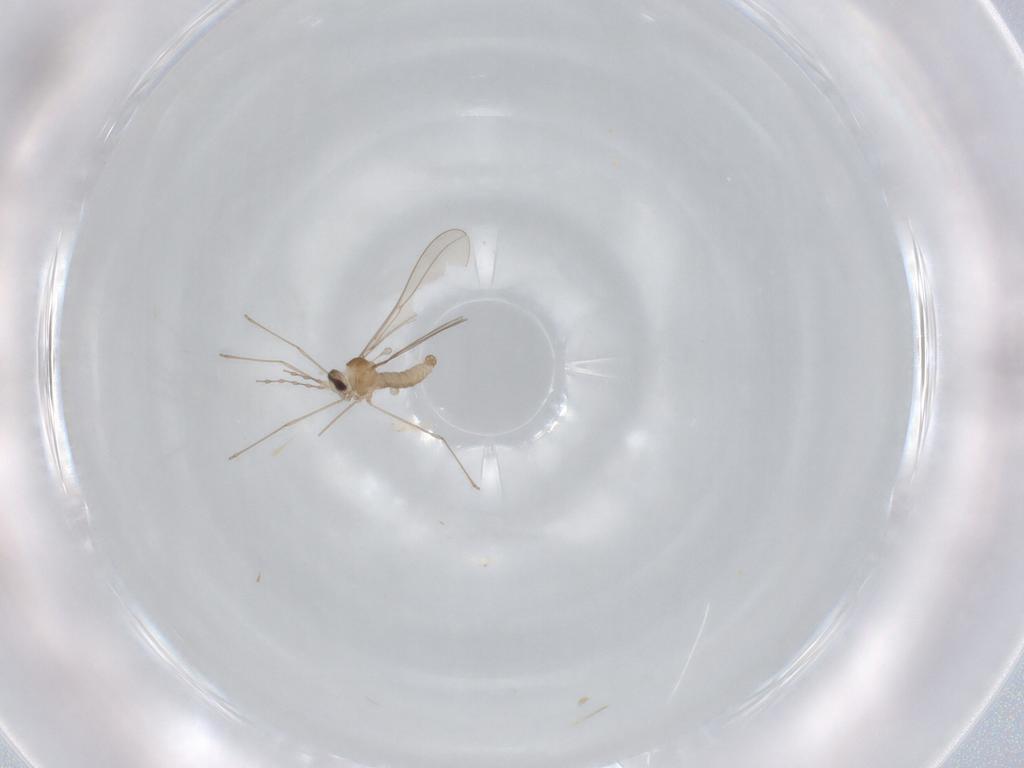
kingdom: Animalia
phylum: Arthropoda
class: Insecta
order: Diptera
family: Cecidomyiidae
